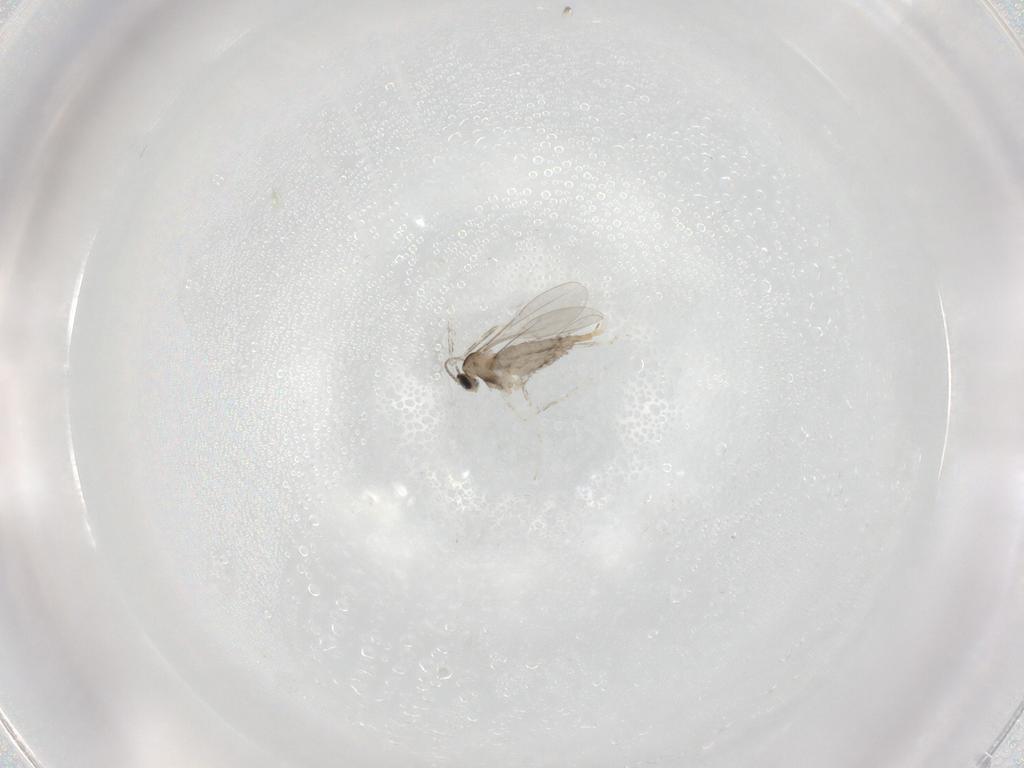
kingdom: Animalia
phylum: Arthropoda
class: Insecta
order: Diptera
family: Cecidomyiidae
